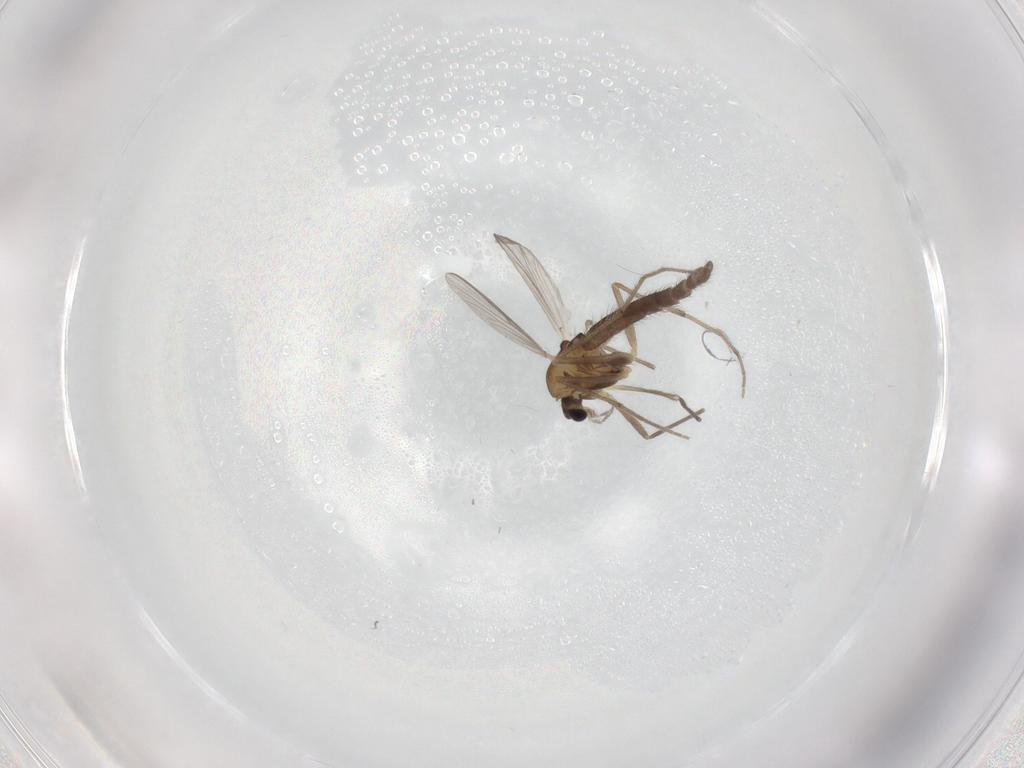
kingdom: Animalia
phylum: Arthropoda
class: Insecta
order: Diptera
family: Chironomidae
